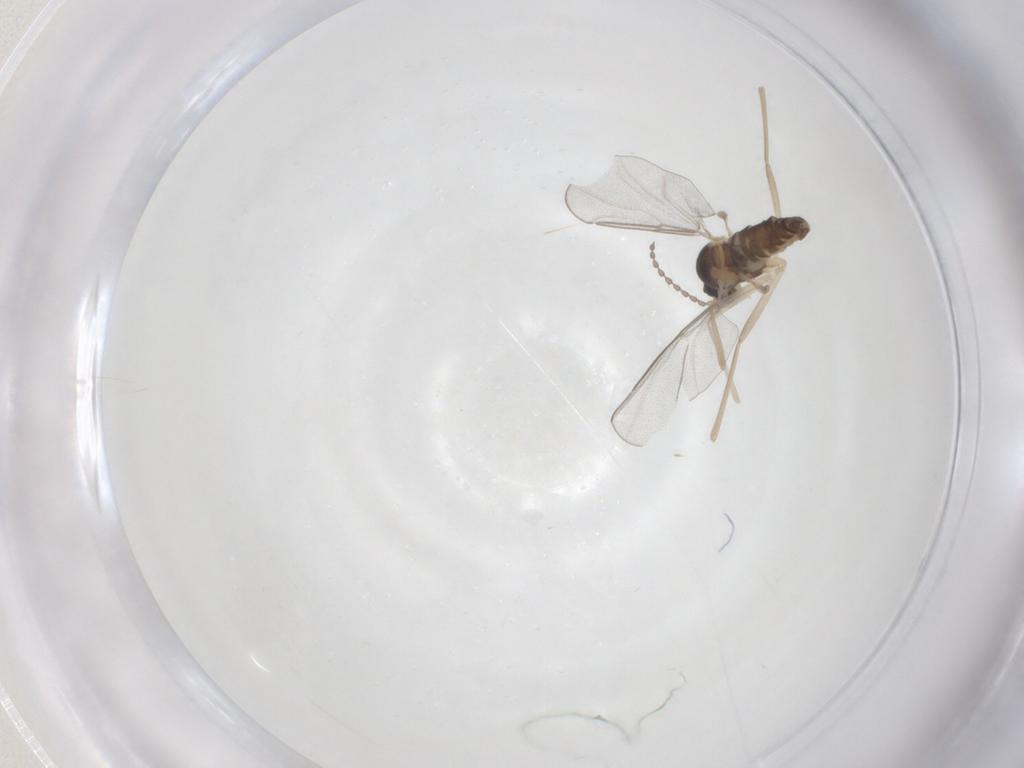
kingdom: Animalia
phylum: Arthropoda
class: Insecta
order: Diptera
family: Cecidomyiidae
